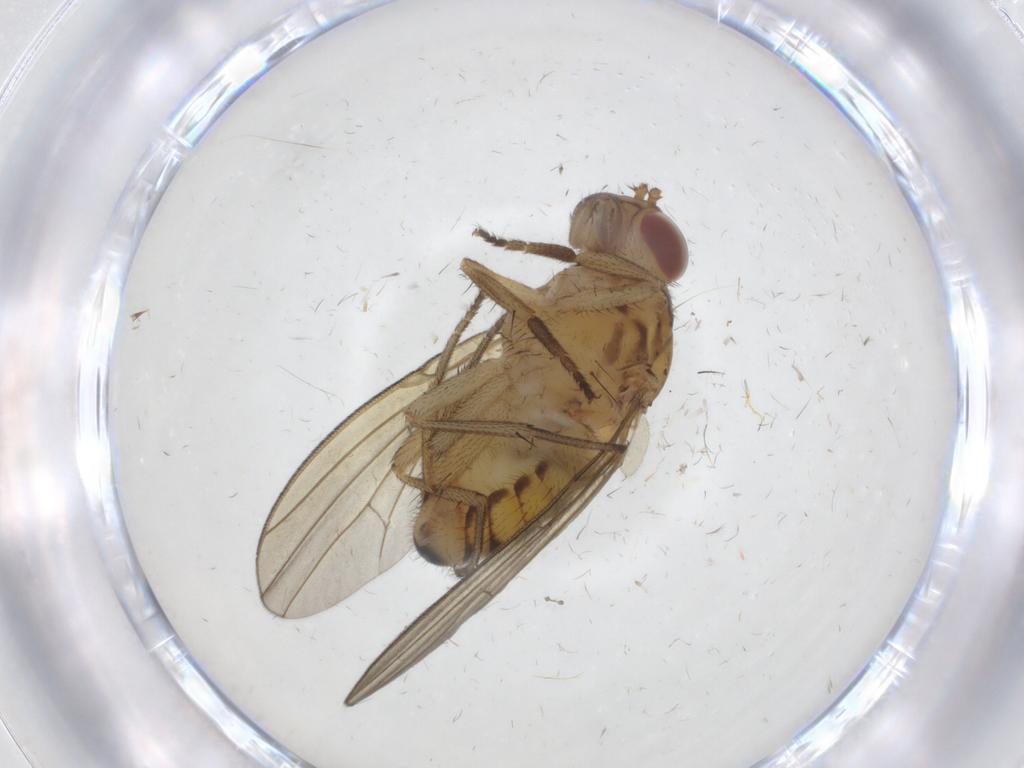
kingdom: Animalia
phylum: Arthropoda
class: Insecta
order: Diptera
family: Cecidomyiidae
